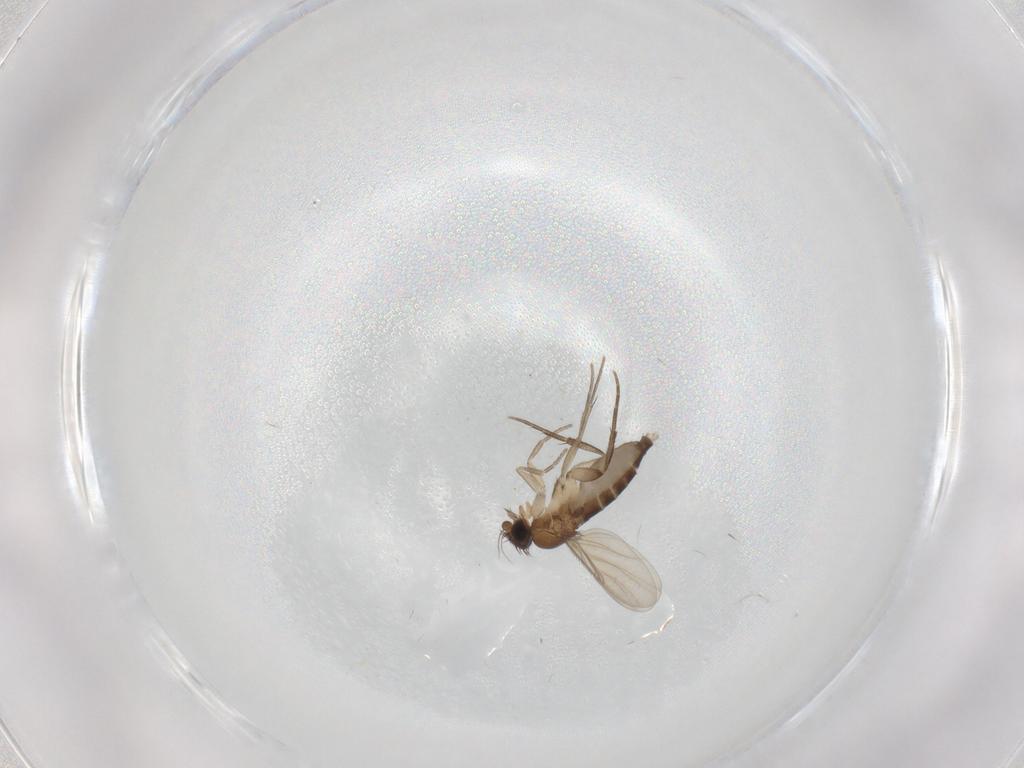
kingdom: Animalia
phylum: Arthropoda
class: Insecta
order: Diptera
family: Phoridae
